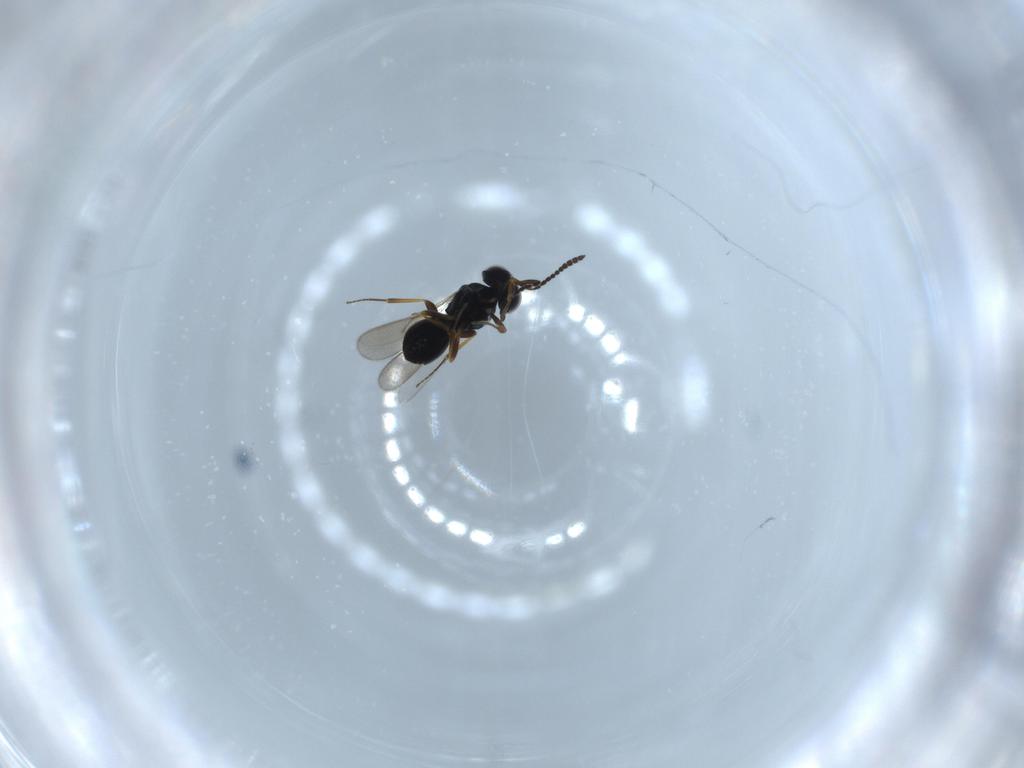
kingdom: Animalia
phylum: Arthropoda
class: Insecta
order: Hymenoptera
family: Scelionidae
